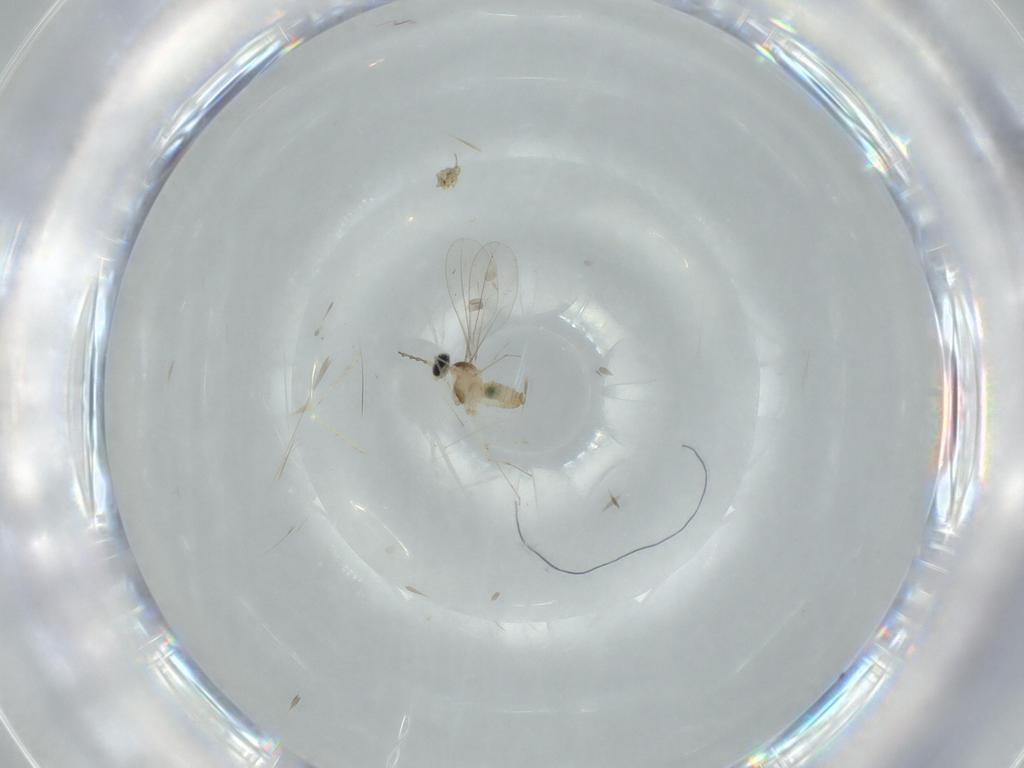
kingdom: Animalia
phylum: Arthropoda
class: Insecta
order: Diptera
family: Cecidomyiidae
